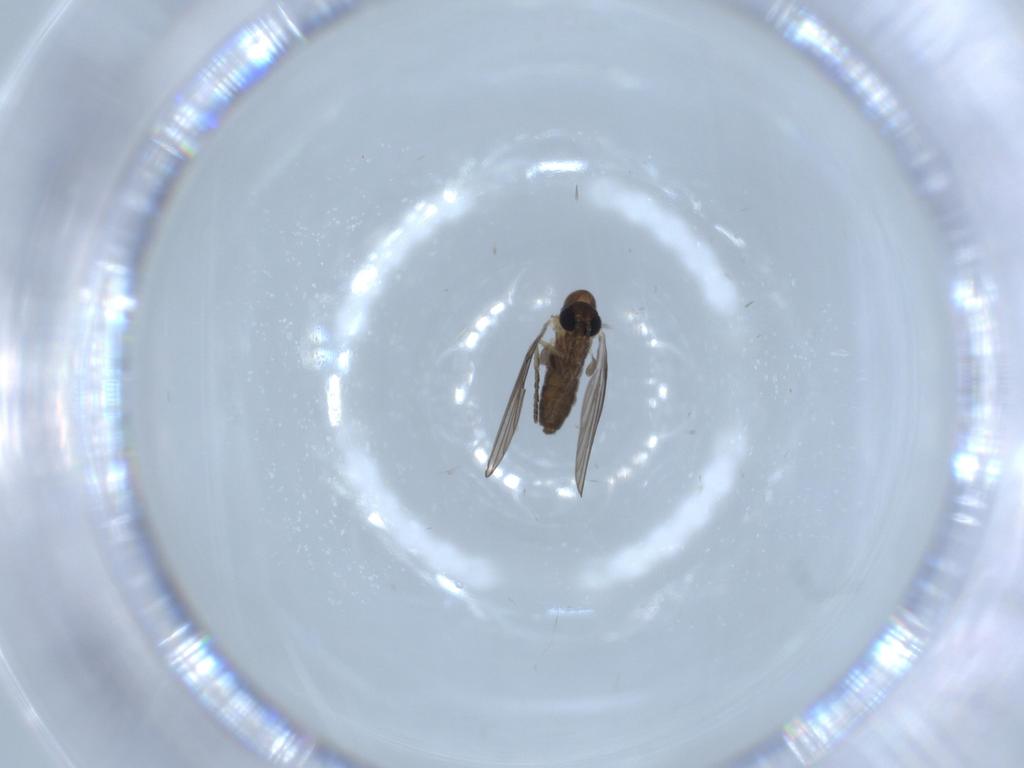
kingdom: Animalia
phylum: Arthropoda
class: Insecta
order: Diptera
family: Psychodidae
